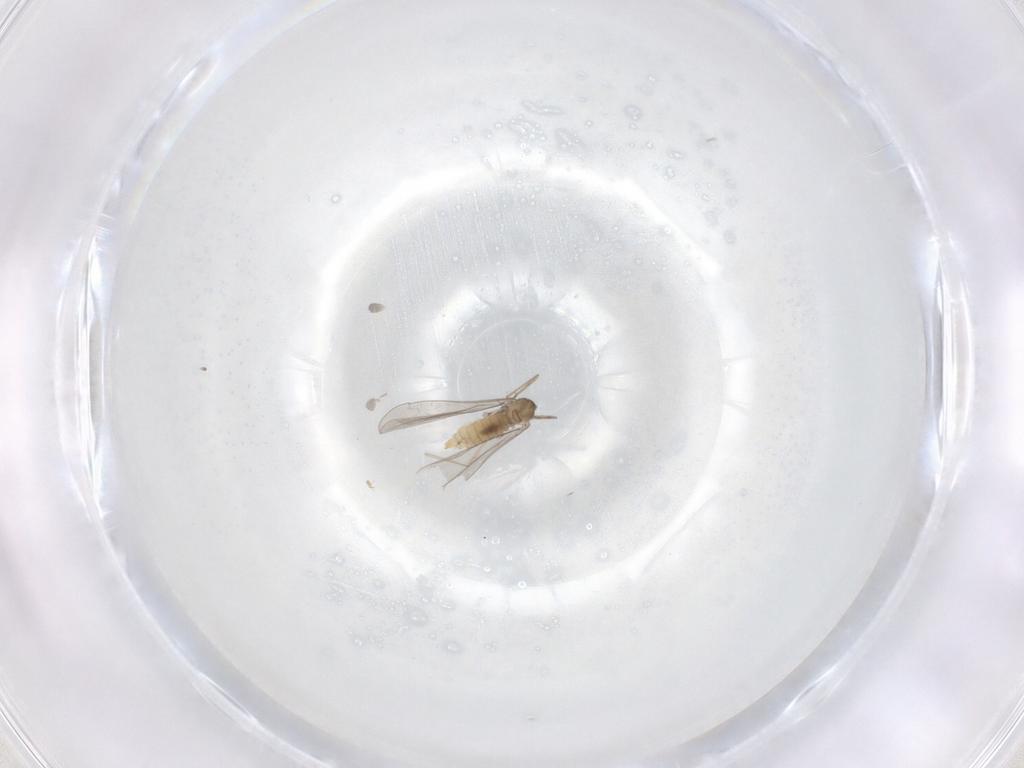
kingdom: Animalia
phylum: Arthropoda
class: Insecta
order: Diptera
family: Cecidomyiidae
